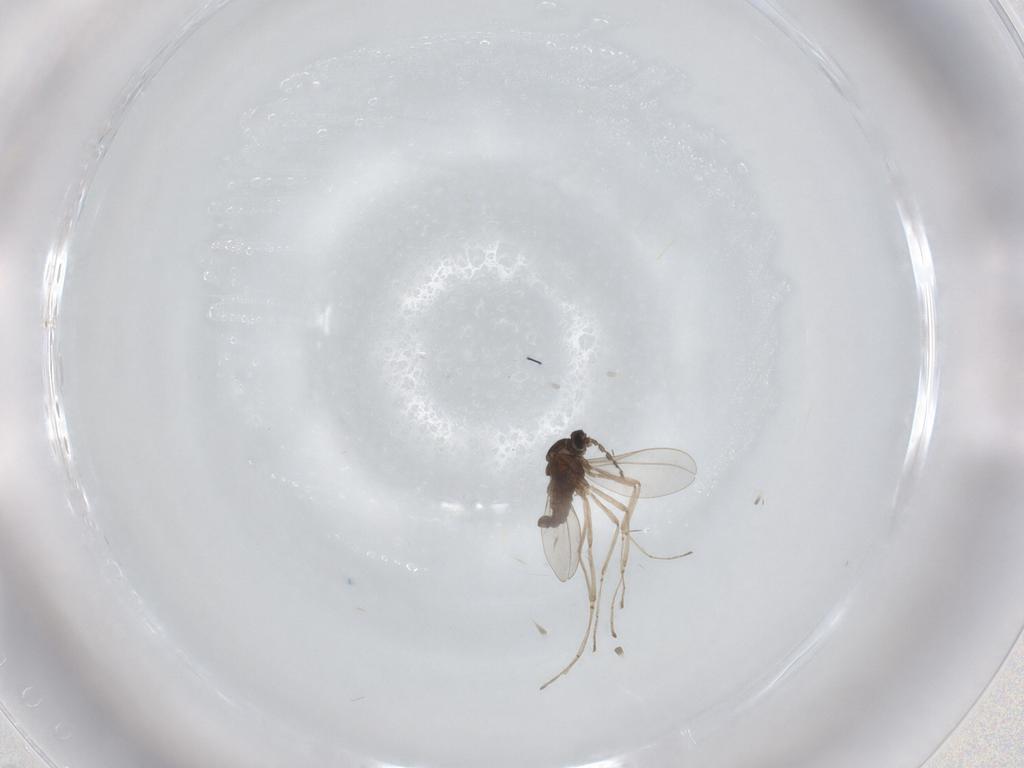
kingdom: Animalia
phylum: Arthropoda
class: Insecta
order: Diptera
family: Cecidomyiidae
